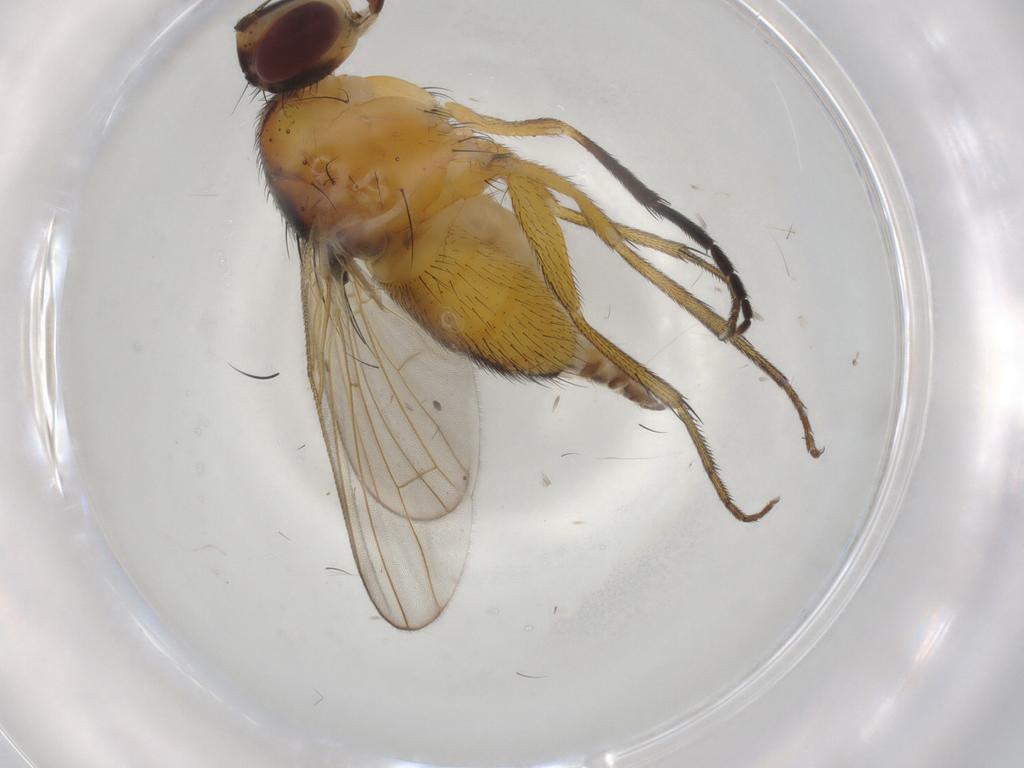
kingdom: Animalia
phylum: Arthropoda
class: Insecta
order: Diptera
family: Muscidae
